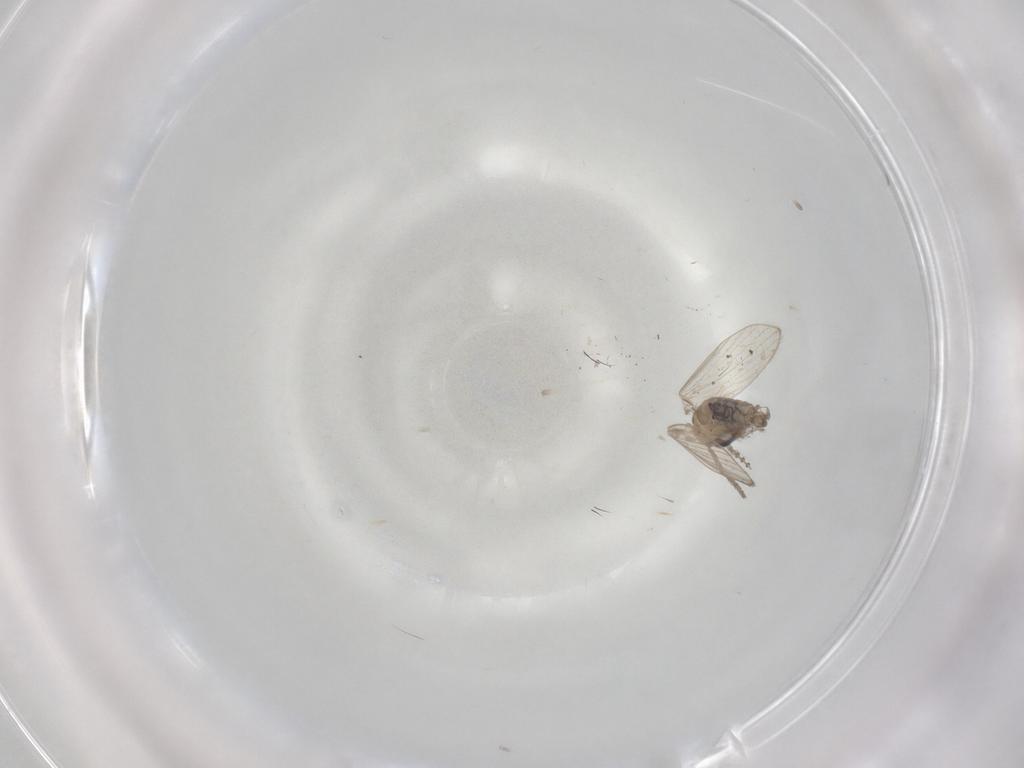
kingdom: Animalia
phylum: Arthropoda
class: Insecta
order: Diptera
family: Psychodidae
